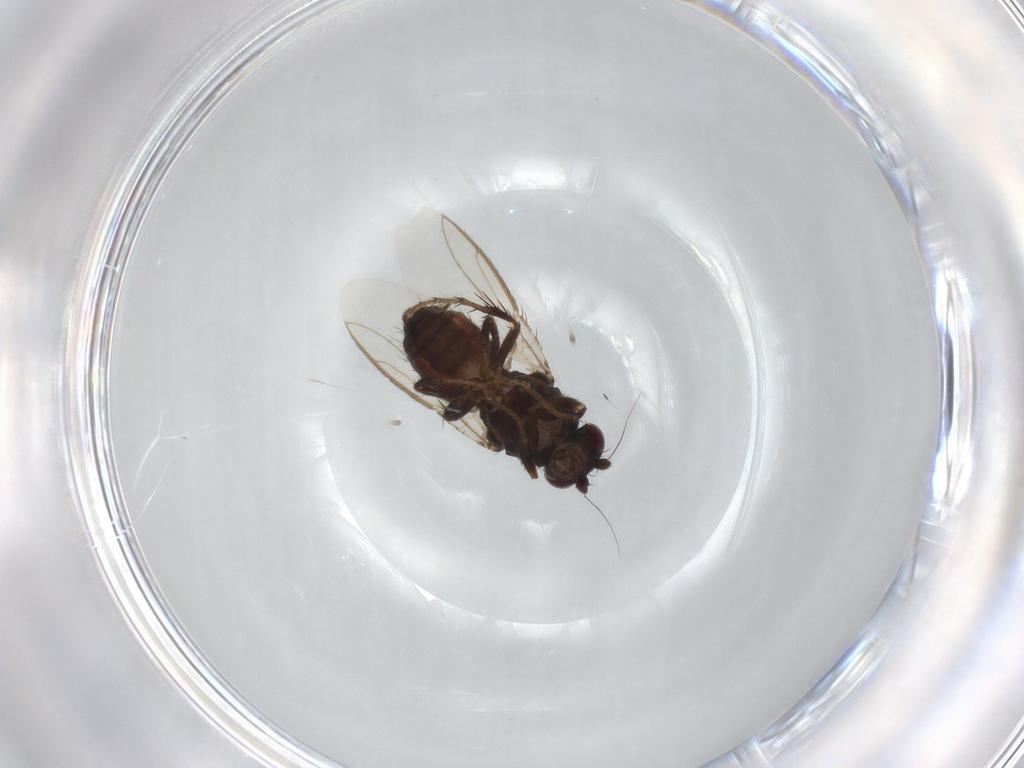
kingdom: Animalia
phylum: Arthropoda
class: Insecta
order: Diptera
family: Sphaeroceridae
